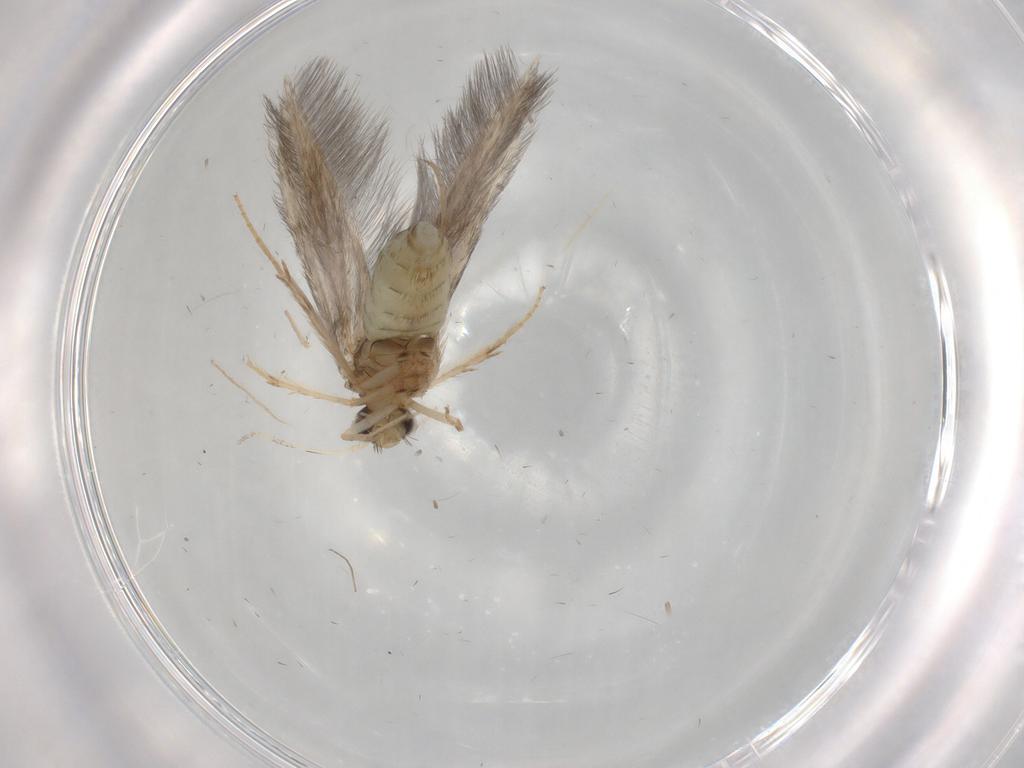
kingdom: Animalia
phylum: Arthropoda
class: Insecta
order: Trichoptera
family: Hydroptilidae
